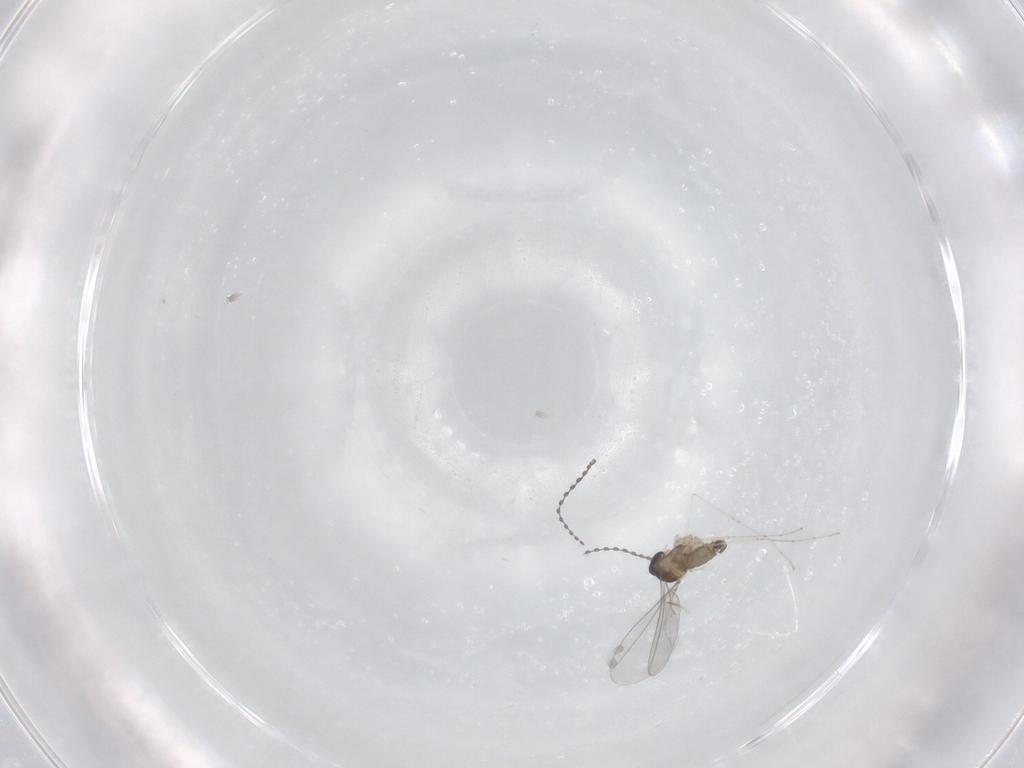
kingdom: Animalia
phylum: Arthropoda
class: Insecta
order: Diptera
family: Cecidomyiidae
